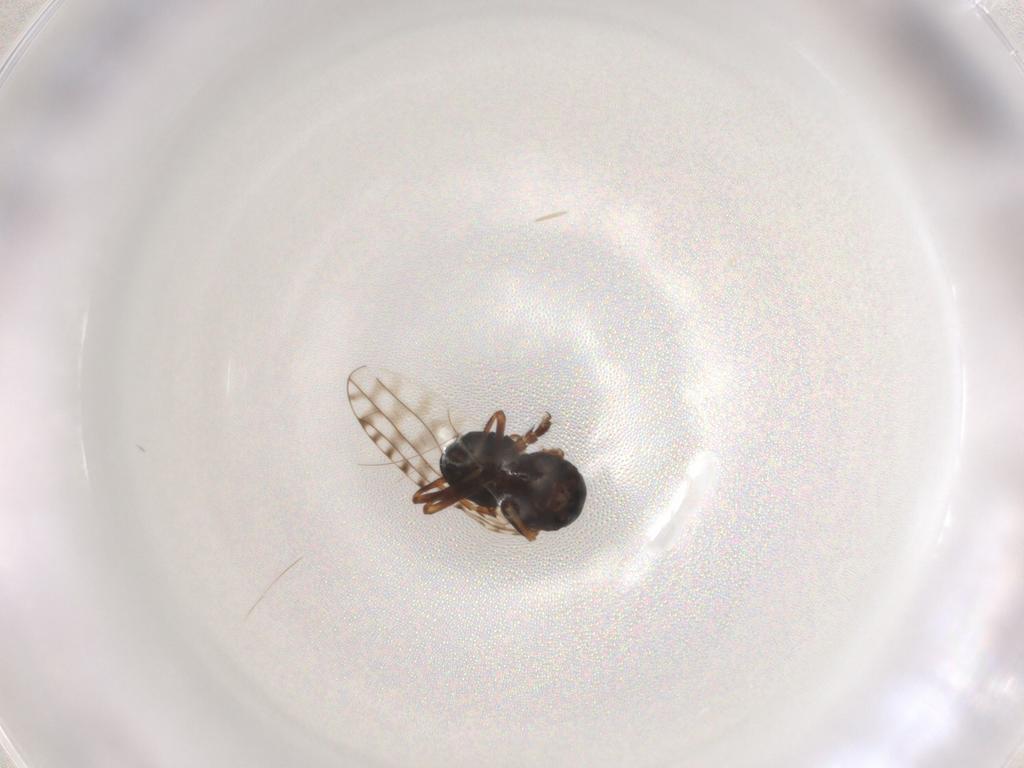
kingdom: Animalia
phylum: Arthropoda
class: Insecta
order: Diptera
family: Ephydridae
